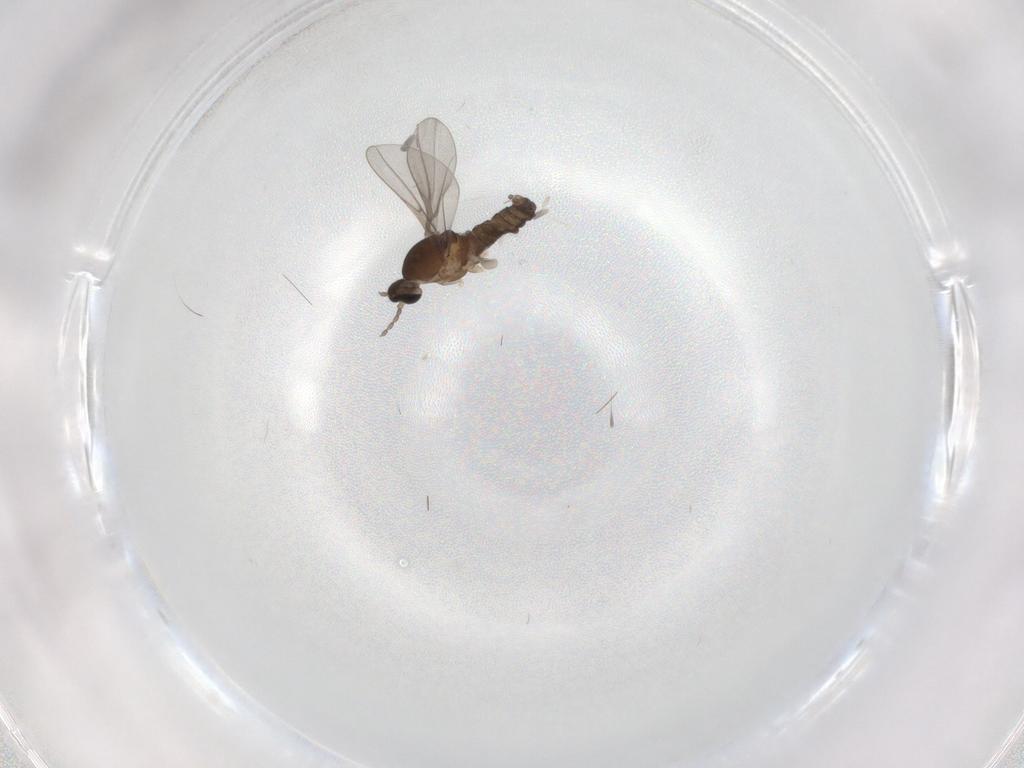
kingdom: Animalia
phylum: Arthropoda
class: Insecta
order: Diptera
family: Cecidomyiidae
